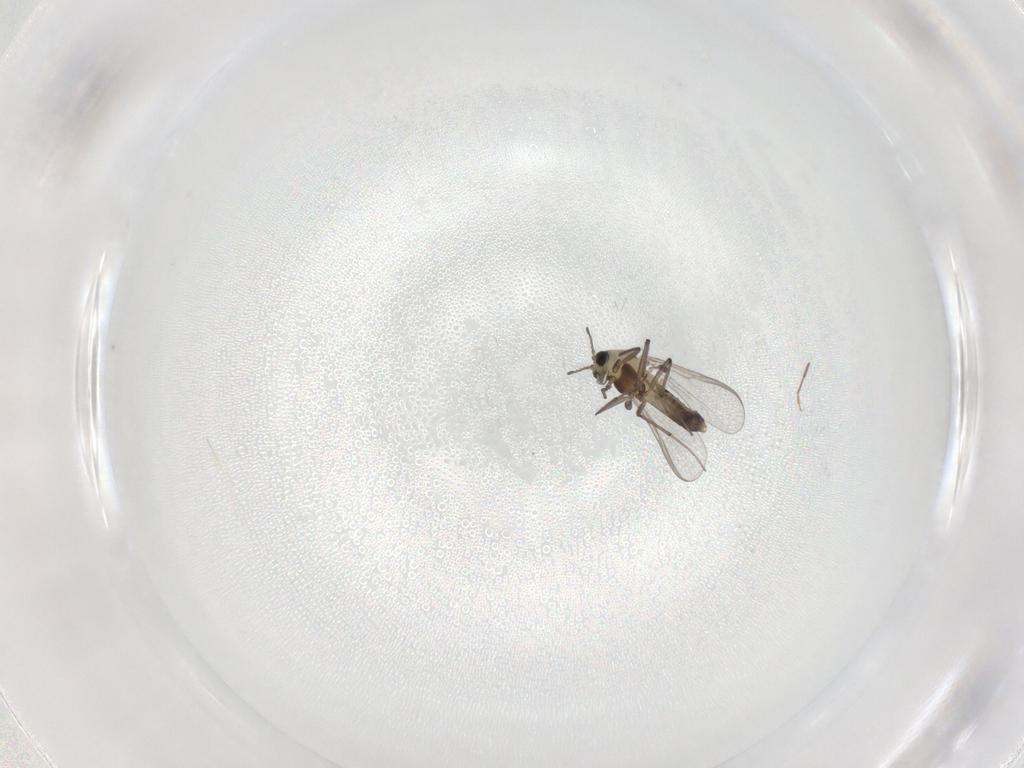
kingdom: Animalia
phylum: Arthropoda
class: Insecta
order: Diptera
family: Chironomidae
